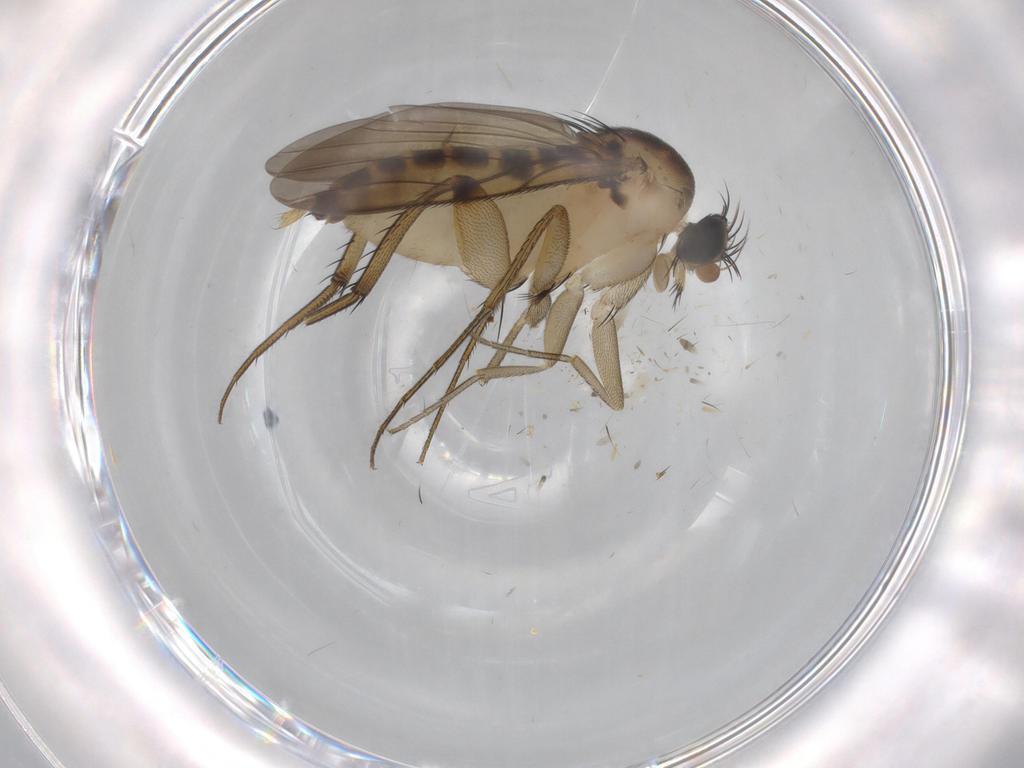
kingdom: Animalia
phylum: Arthropoda
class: Insecta
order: Diptera
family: Phoridae
